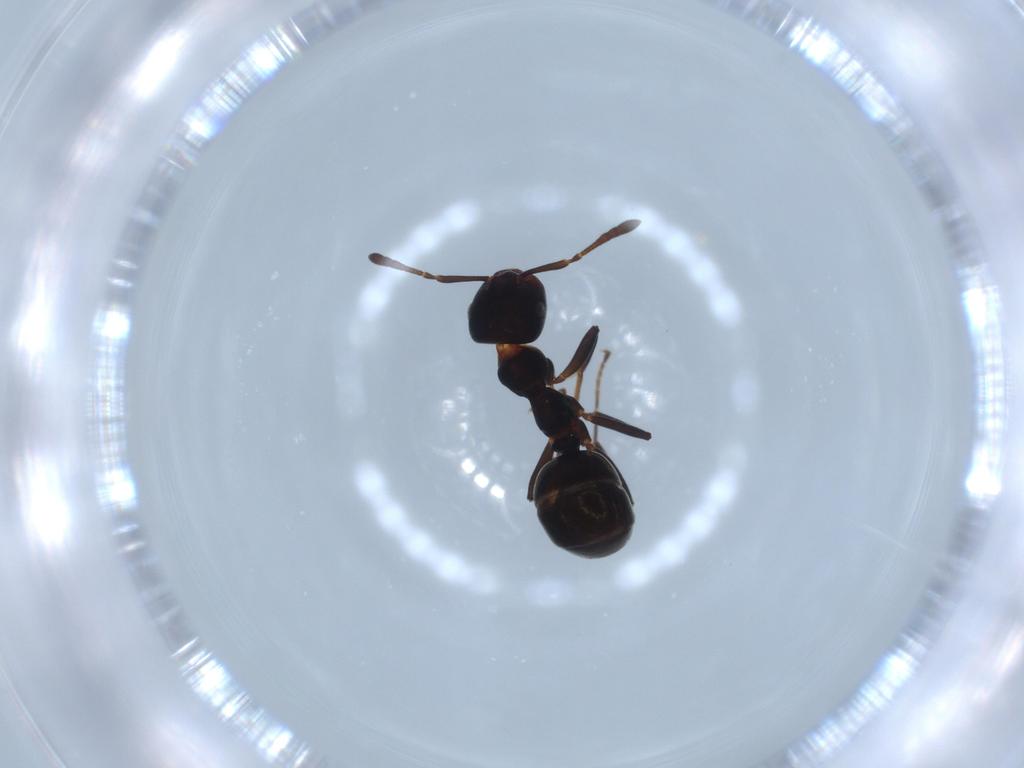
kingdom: Animalia
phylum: Arthropoda
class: Insecta
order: Hymenoptera
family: Formicidae
